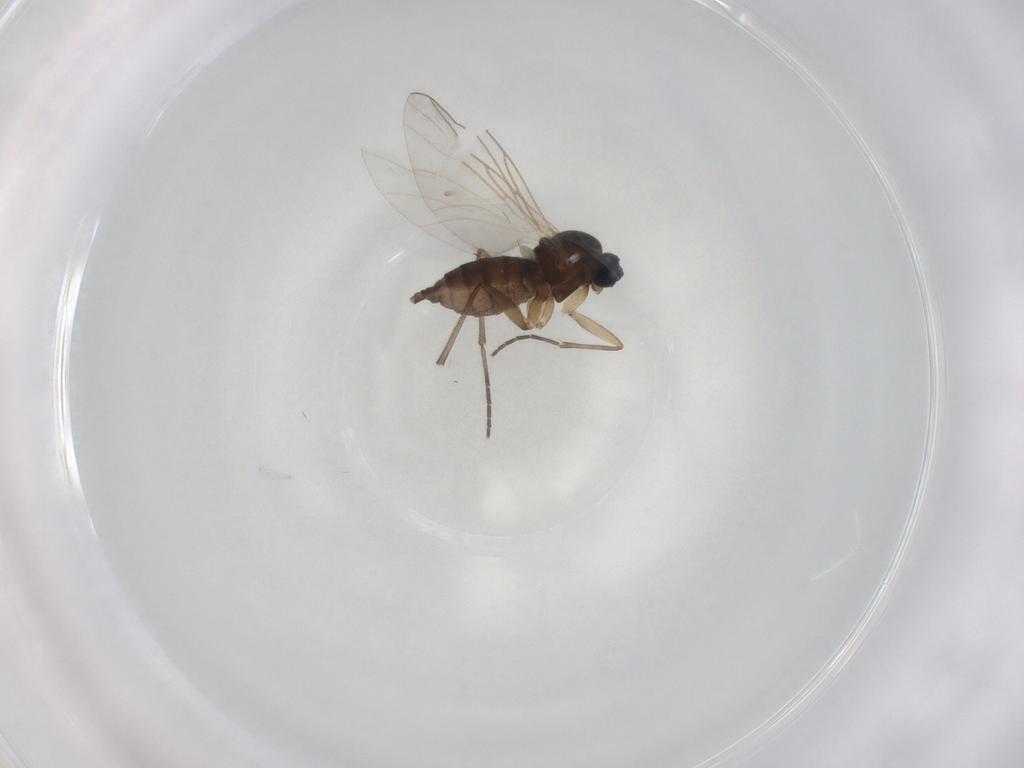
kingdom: Animalia
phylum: Arthropoda
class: Insecta
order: Diptera
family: Sciaridae
